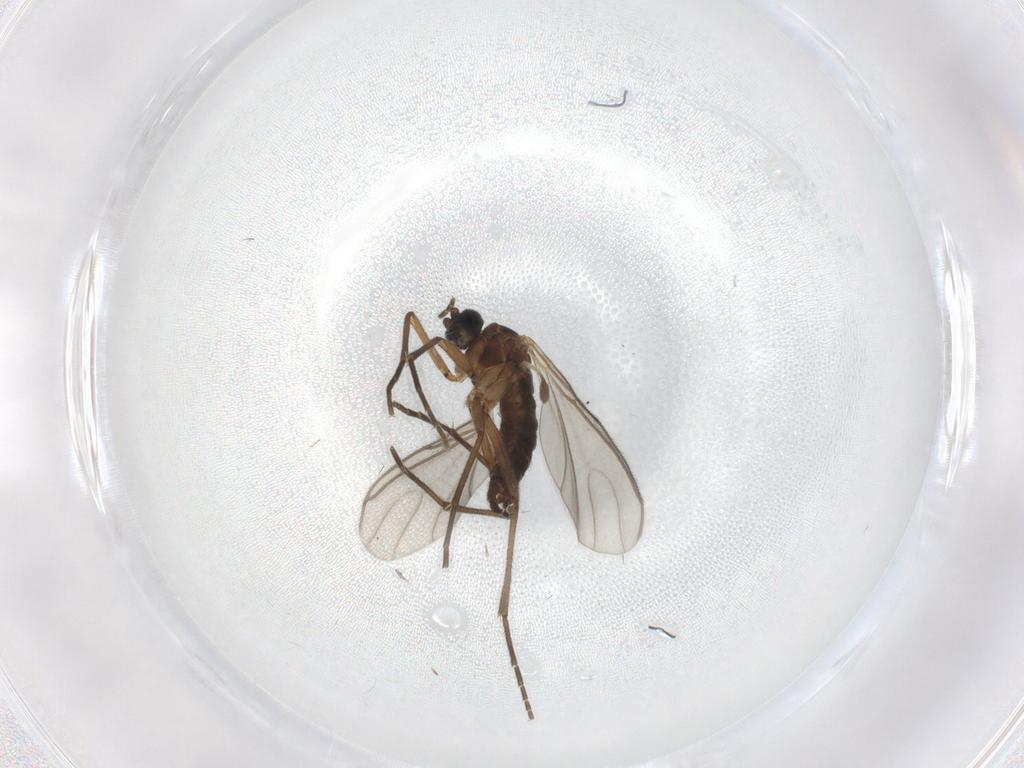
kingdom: Animalia
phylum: Arthropoda
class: Insecta
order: Diptera
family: Sciaridae
